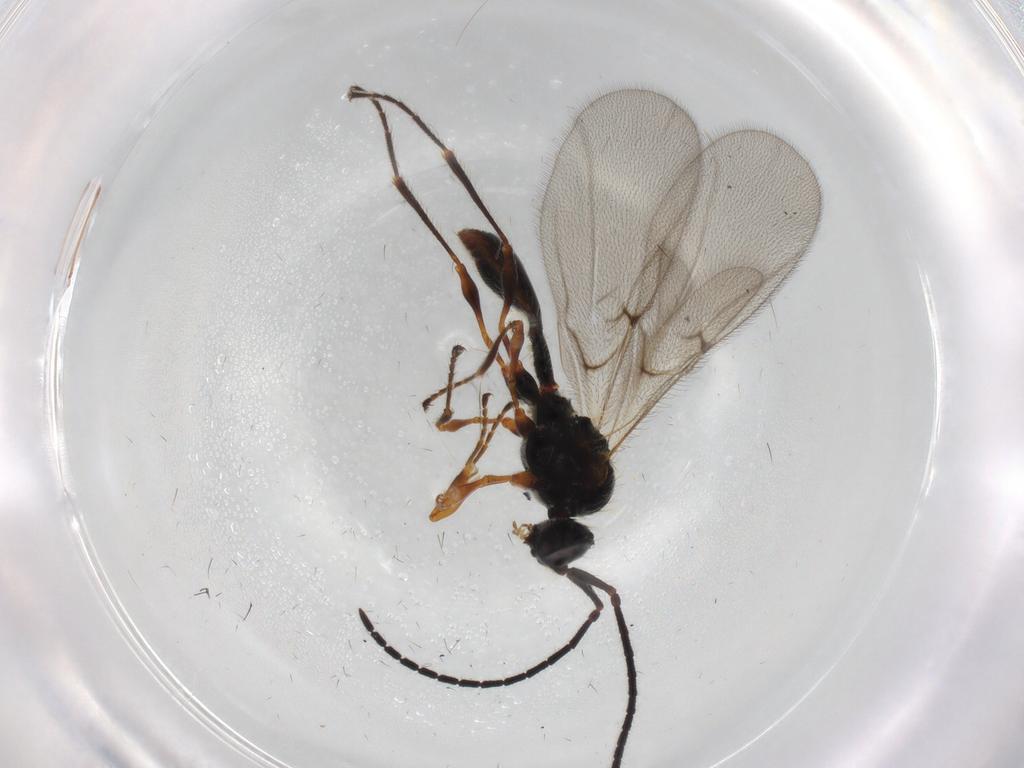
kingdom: Animalia
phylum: Arthropoda
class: Insecta
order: Hymenoptera
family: Diapriidae
